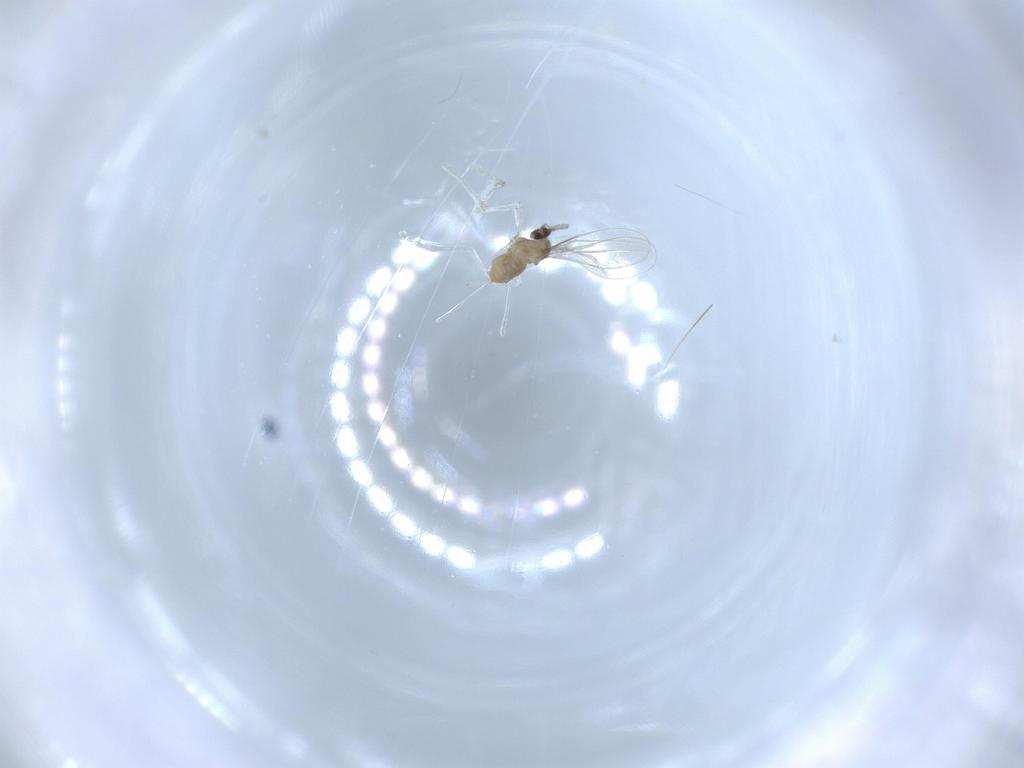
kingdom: Animalia
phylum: Arthropoda
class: Insecta
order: Diptera
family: Cecidomyiidae
